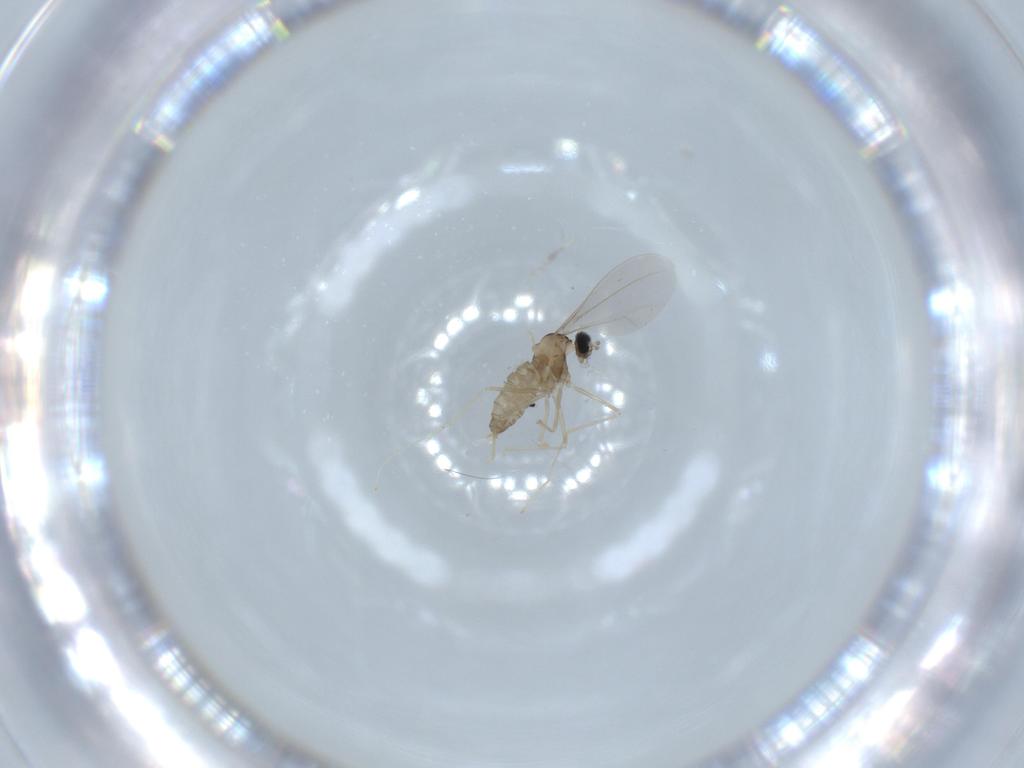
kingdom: Animalia
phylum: Arthropoda
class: Insecta
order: Diptera
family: Cecidomyiidae
